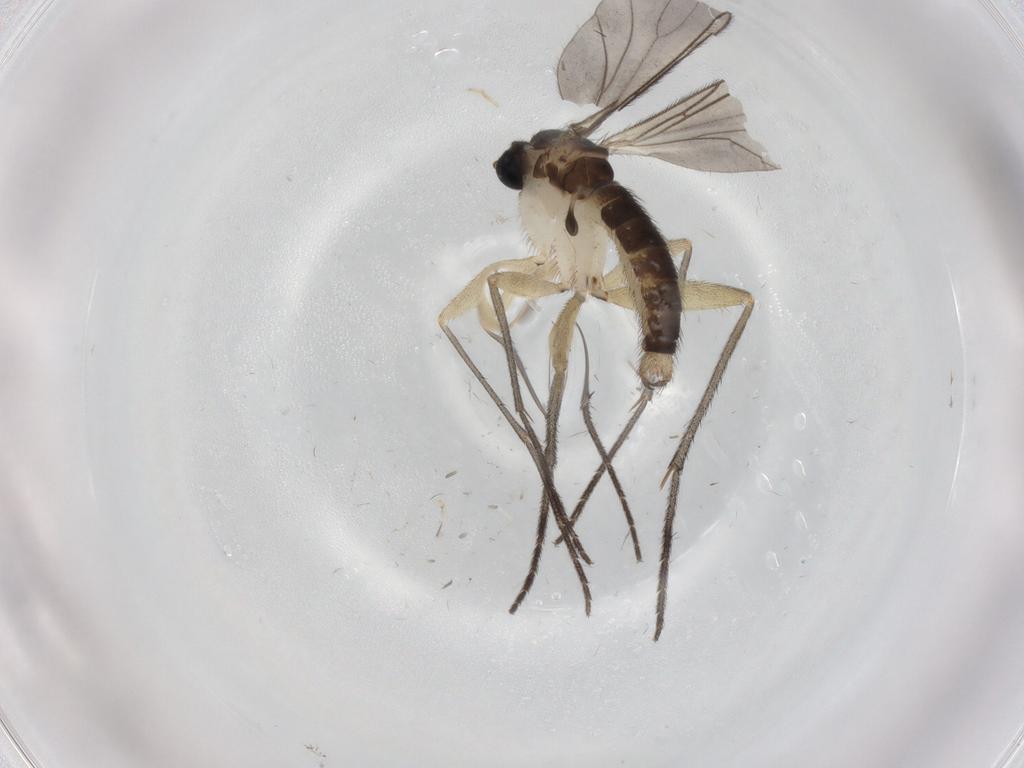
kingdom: Animalia
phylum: Arthropoda
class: Insecta
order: Diptera
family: Sciaridae
